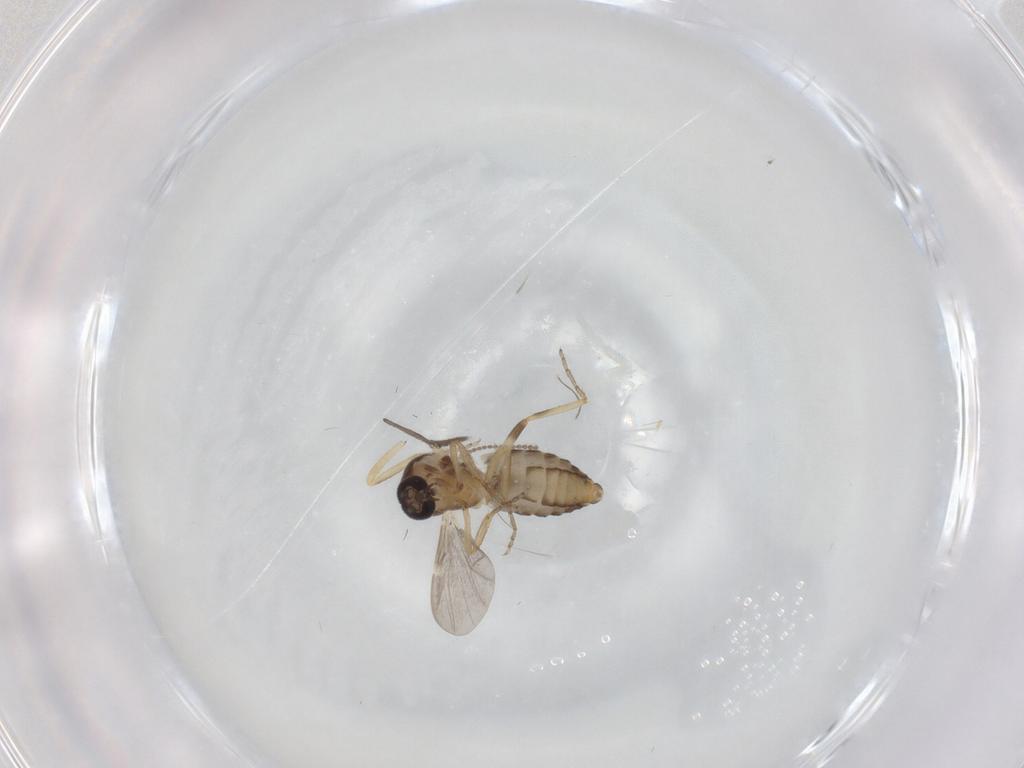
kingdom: Animalia
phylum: Arthropoda
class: Insecta
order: Diptera
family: Ceratopogonidae
